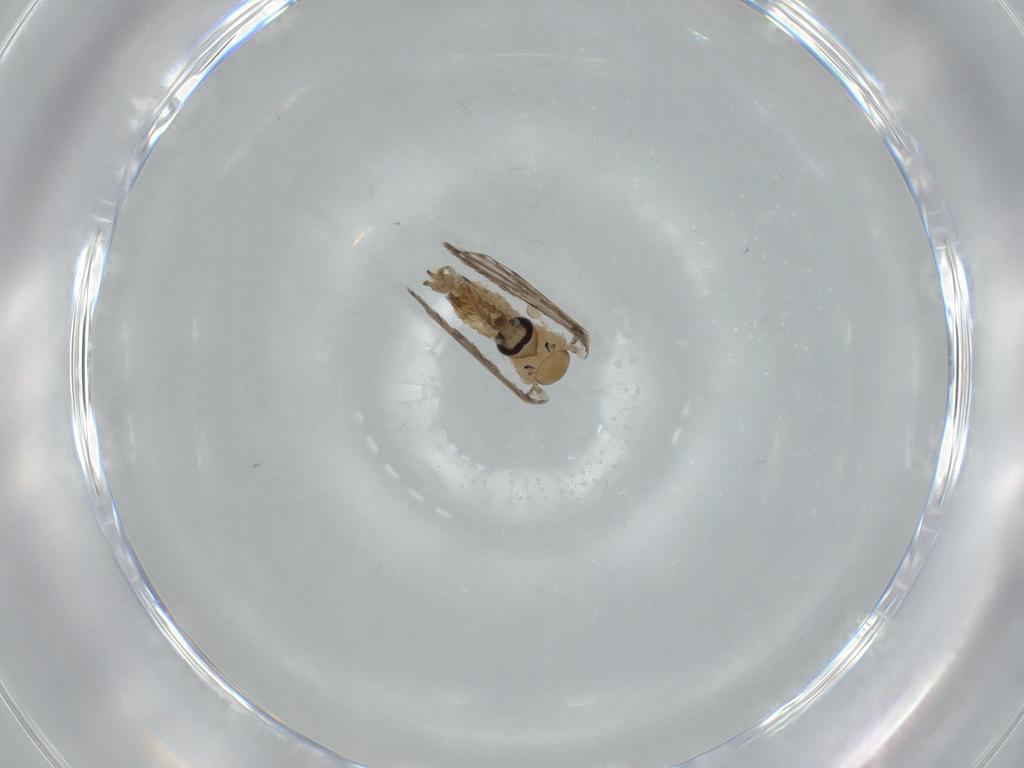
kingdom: Animalia
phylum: Arthropoda
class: Insecta
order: Diptera
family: Psychodidae
